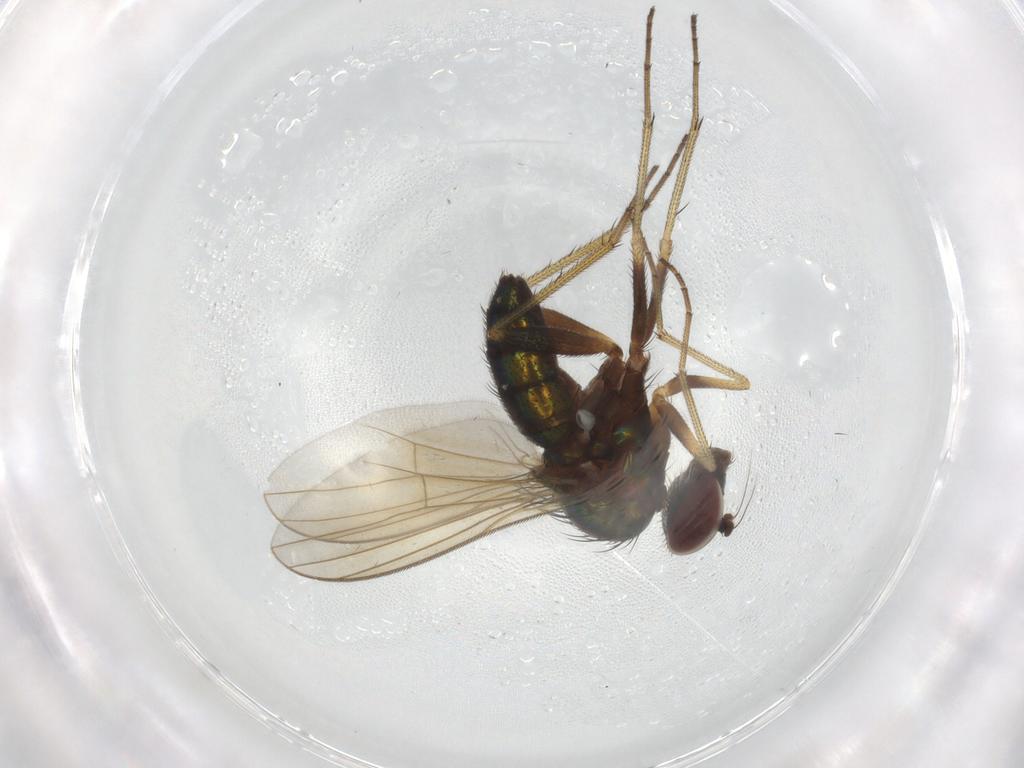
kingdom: Animalia
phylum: Arthropoda
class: Insecta
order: Diptera
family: Dolichopodidae
